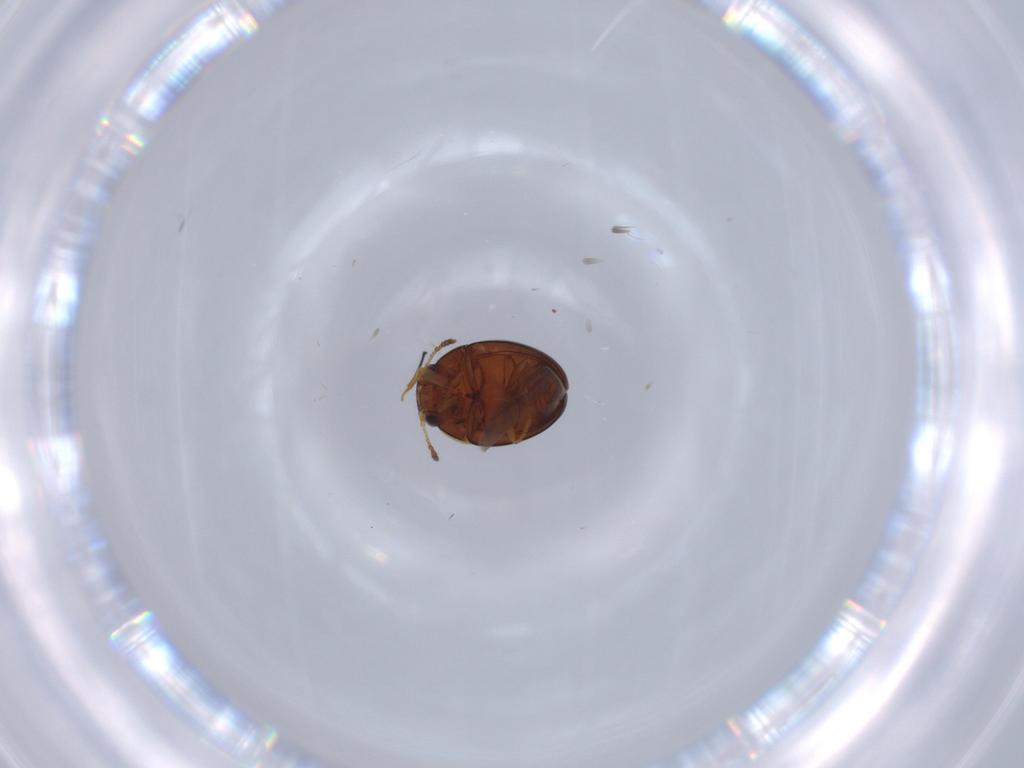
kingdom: Animalia
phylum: Arthropoda
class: Insecta
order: Coleoptera
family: Leiodidae
